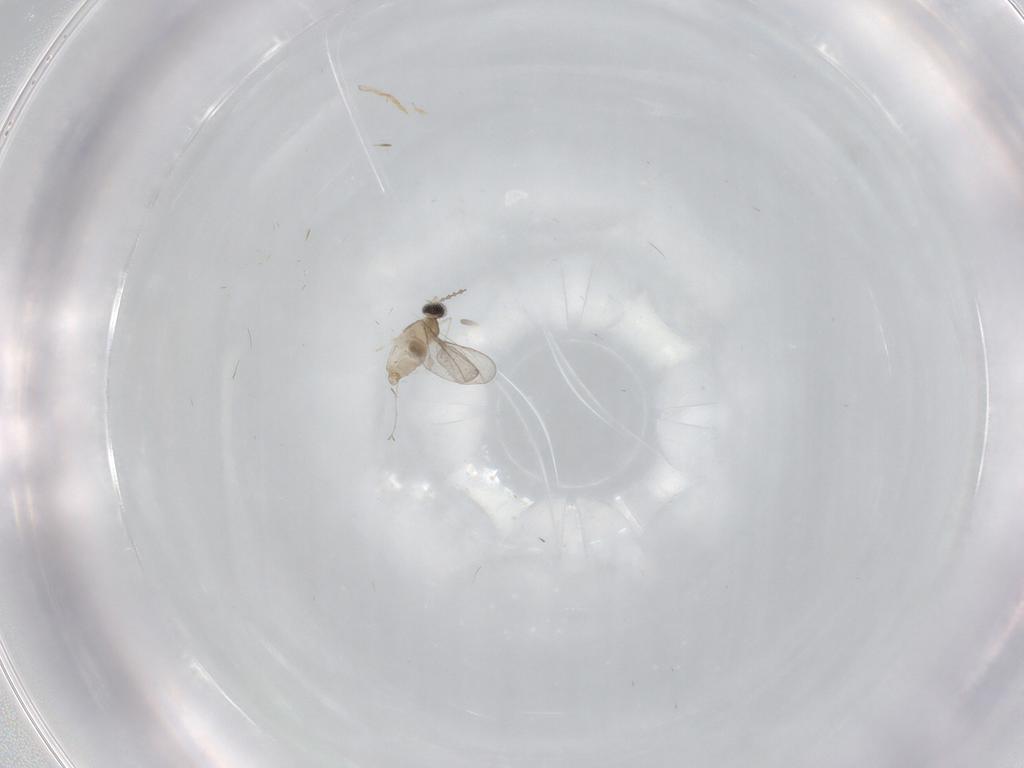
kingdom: Animalia
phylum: Arthropoda
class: Insecta
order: Diptera
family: Cecidomyiidae
